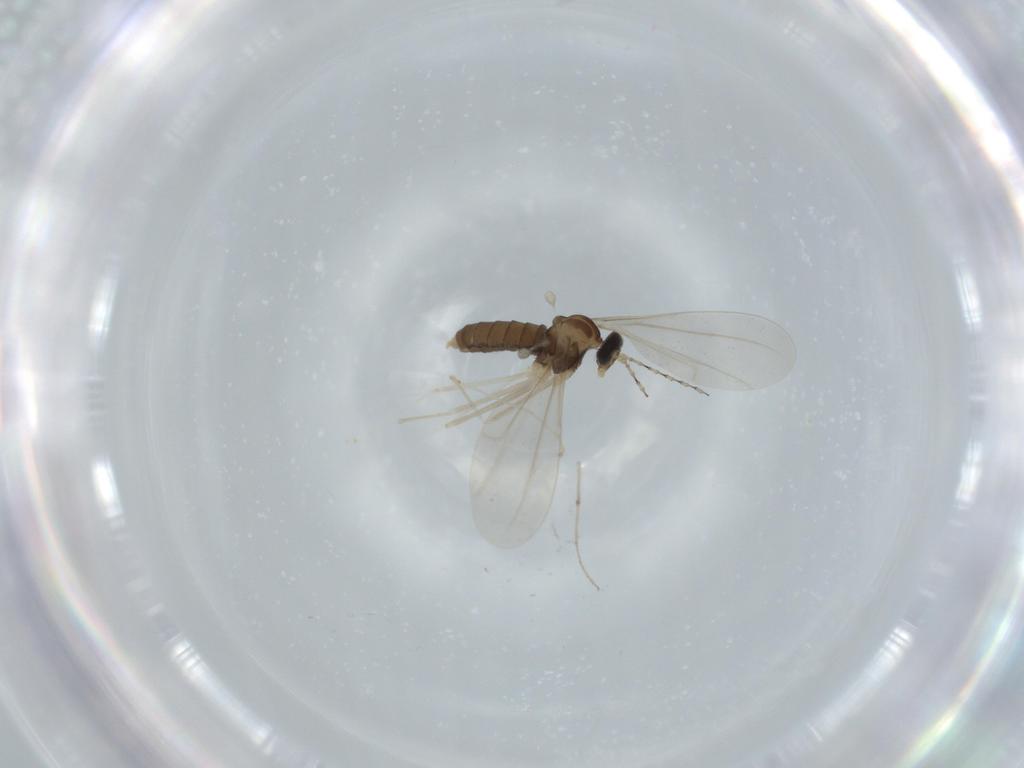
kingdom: Animalia
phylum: Arthropoda
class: Insecta
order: Diptera
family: Cecidomyiidae
